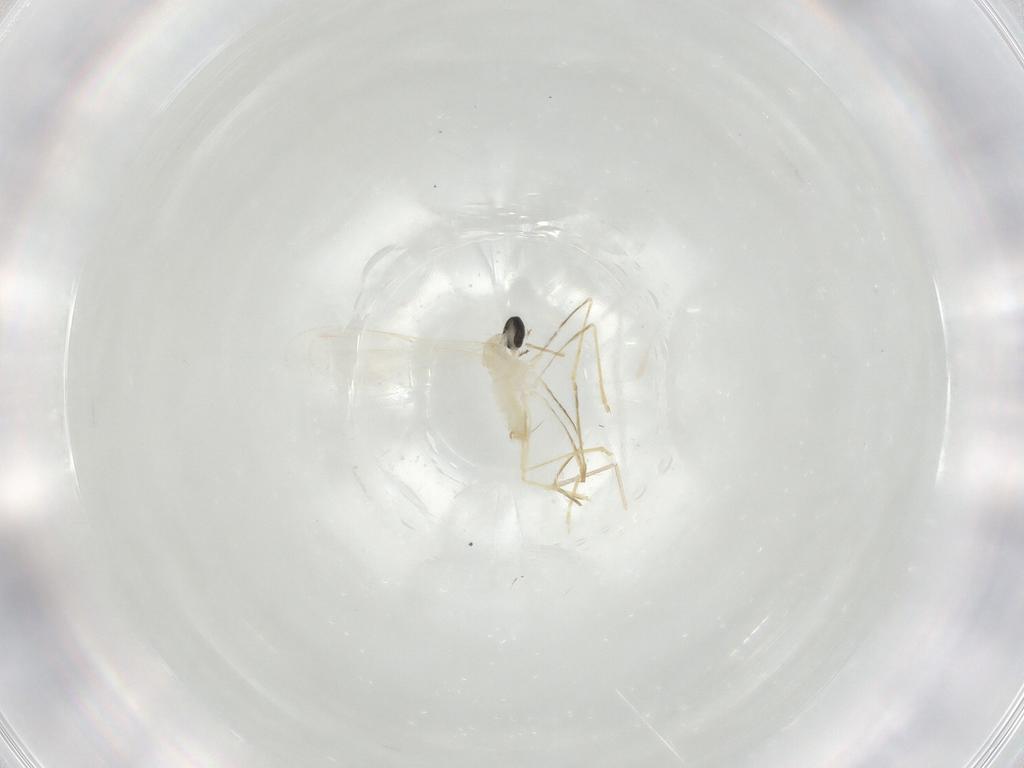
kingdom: Animalia
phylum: Arthropoda
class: Insecta
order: Diptera
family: Cecidomyiidae
